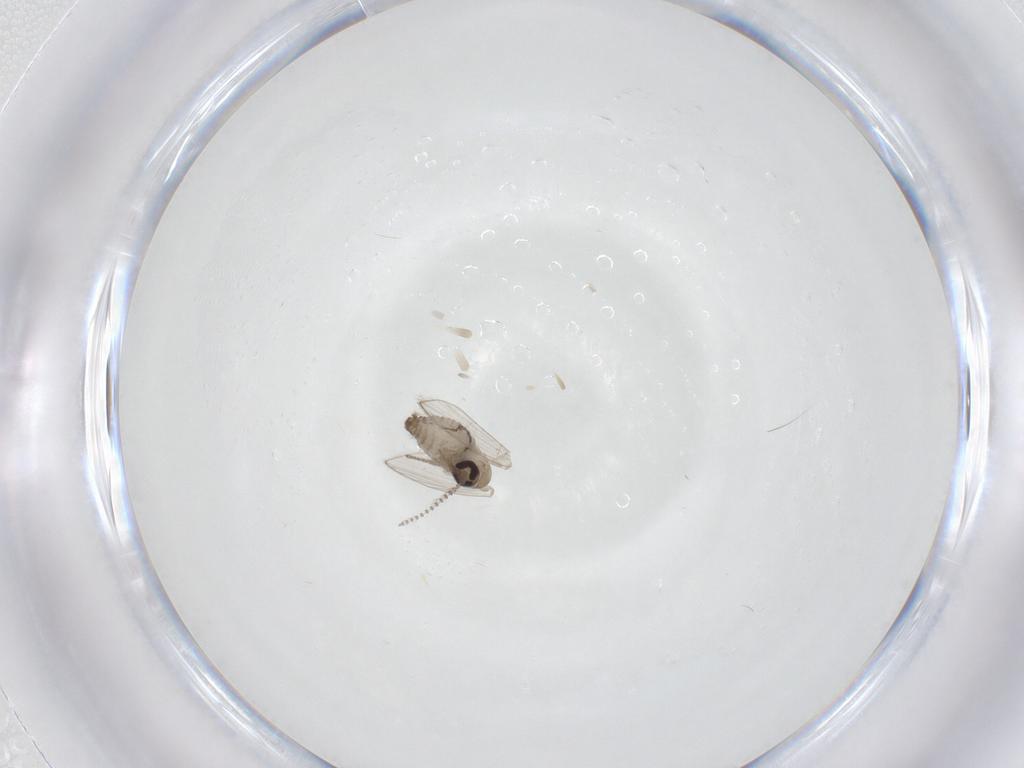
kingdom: Animalia
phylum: Arthropoda
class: Insecta
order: Diptera
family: Psychodidae
